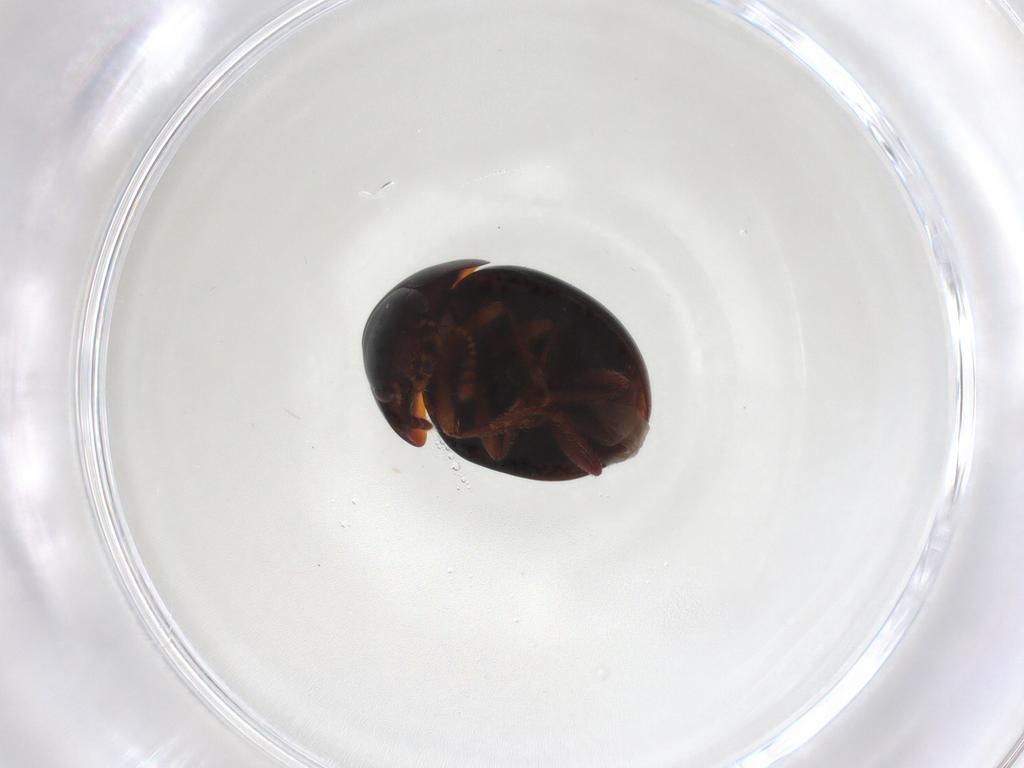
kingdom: Animalia
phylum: Arthropoda
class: Insecta
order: Coleoptera
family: Leiodidae
